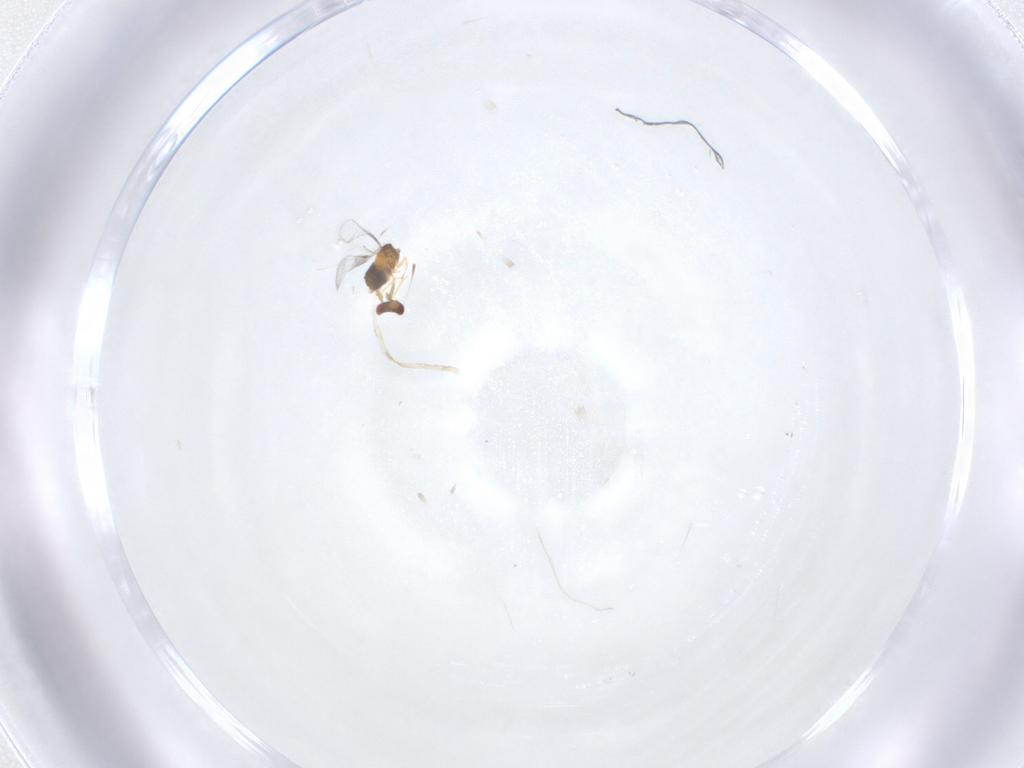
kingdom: Animalia
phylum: Arthropoda
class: Insecta
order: Hymenoptera
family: Trichogrammatidae
